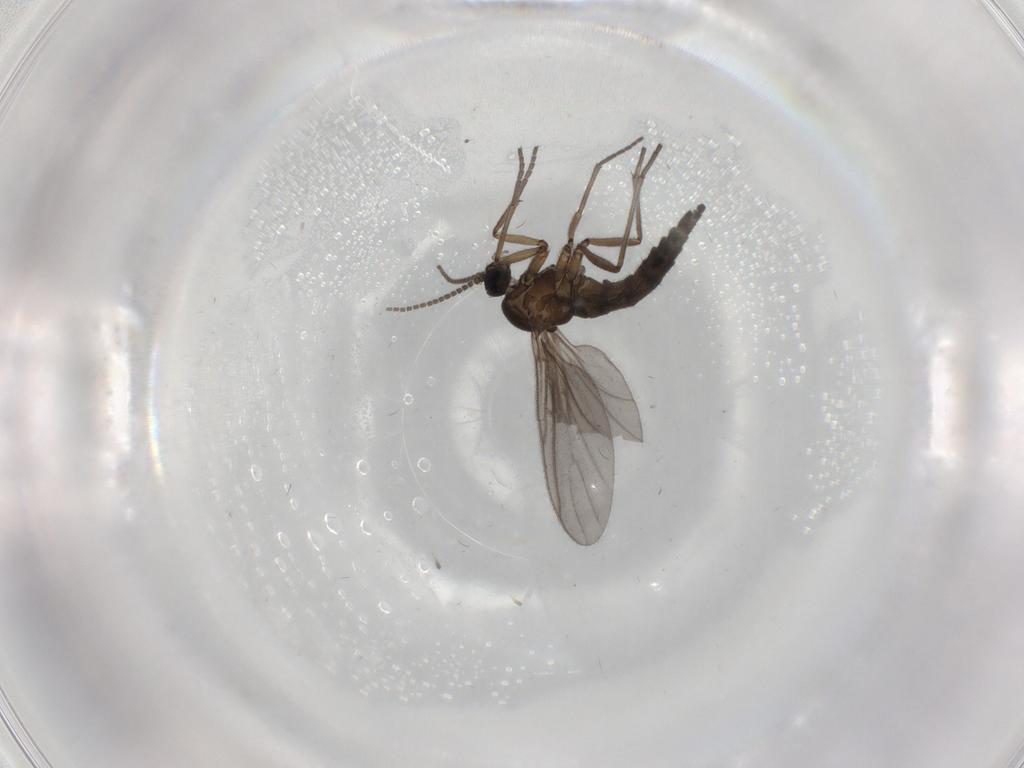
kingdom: Animalia
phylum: Arthropoda
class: Insecta
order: Diptera
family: Sciaridae
